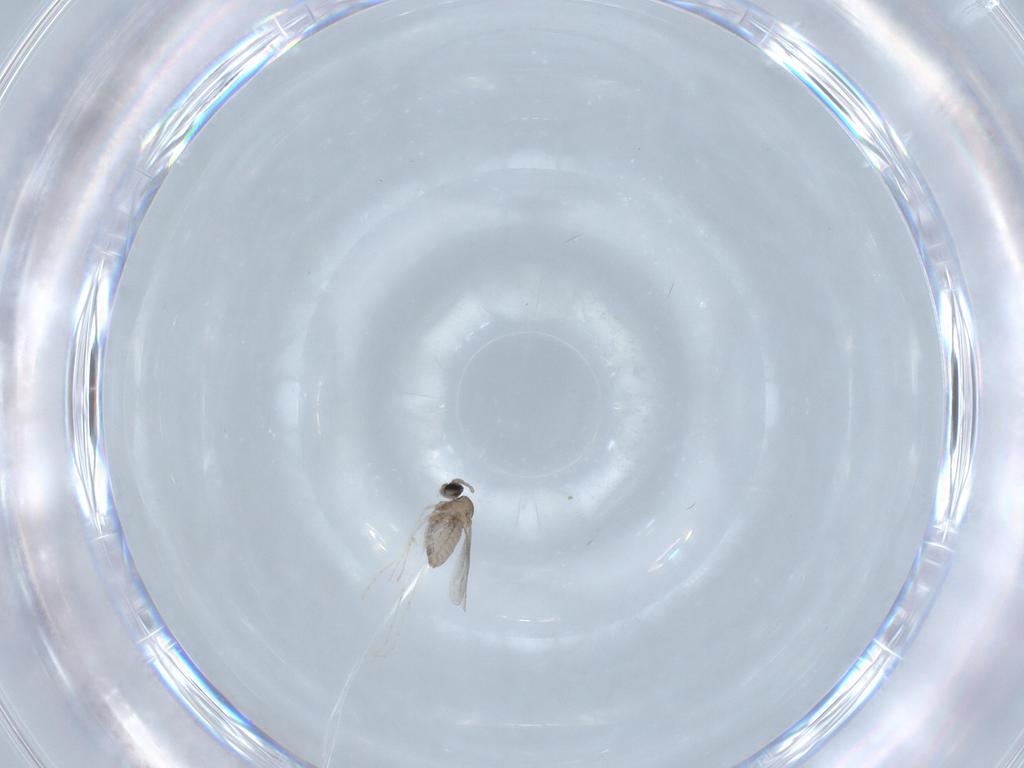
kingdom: Animalia
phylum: Arthropoda
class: Insecta
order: Diptera
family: Cecidomyiidae
